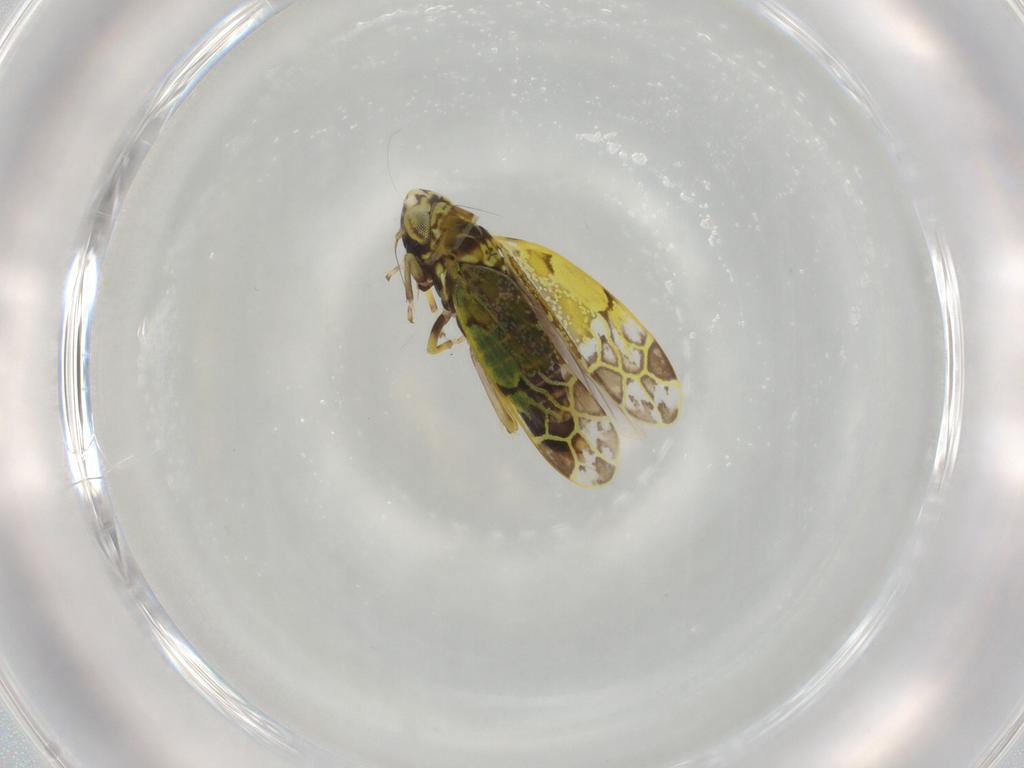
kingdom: Animalia
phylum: Arthropoda
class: Insecta
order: Hemiptera
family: Cicadellidae
